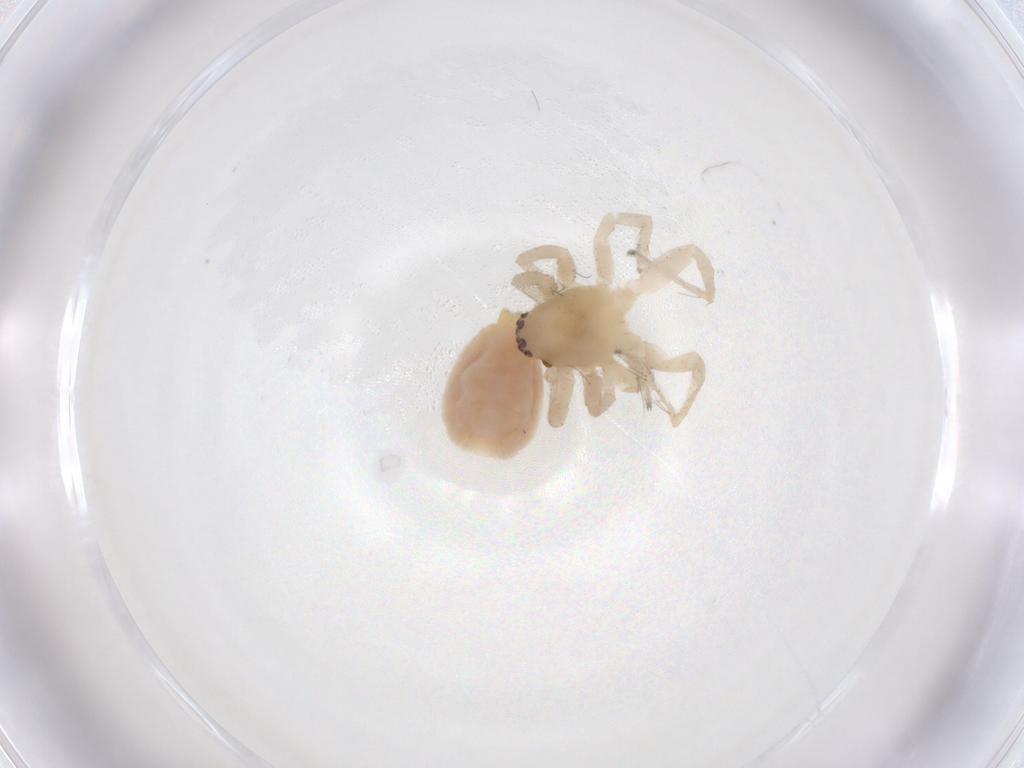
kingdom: Animalia
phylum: Arthropoda
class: Arachnida
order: Araneae
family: Clubionidae
